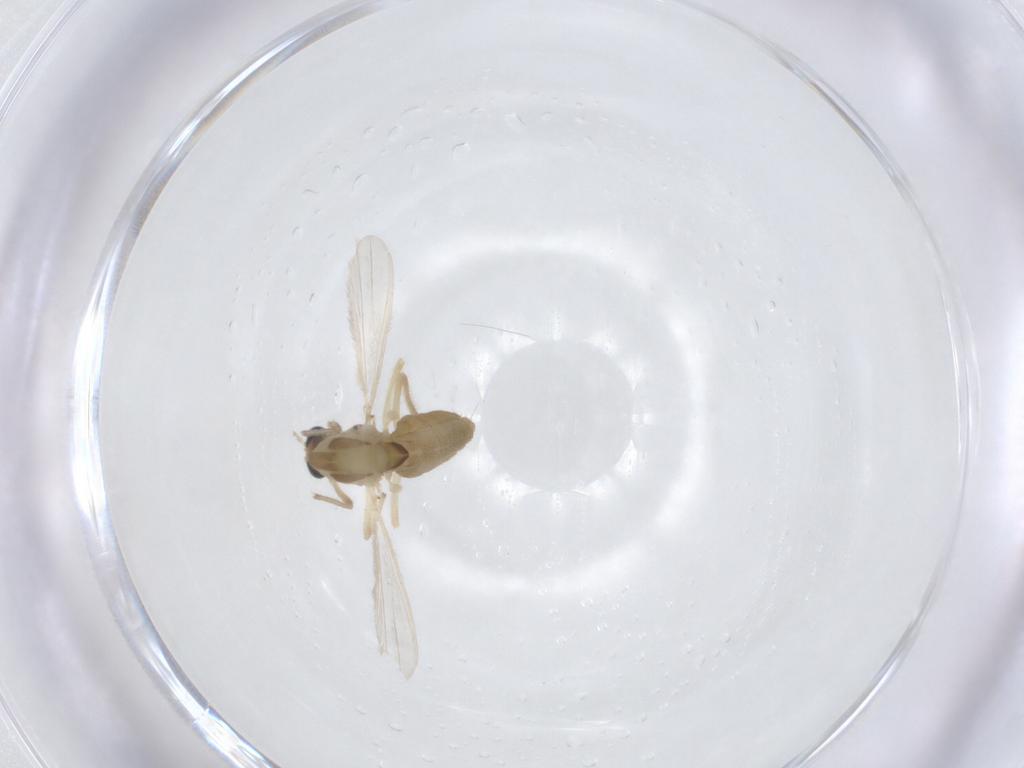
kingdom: Animalia
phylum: Arthropoda
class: Insecta
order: Diptera
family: Chironomidae
